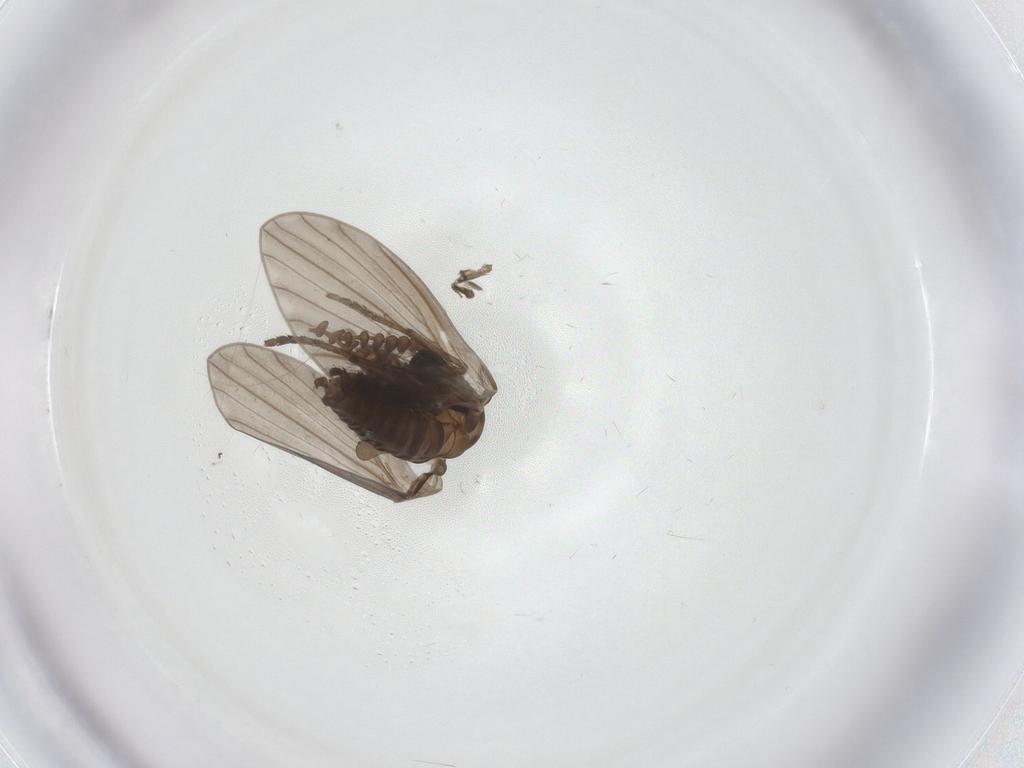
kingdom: Animalia
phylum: Arthropoda
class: Insecta
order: Diptera
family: Psychodidae
